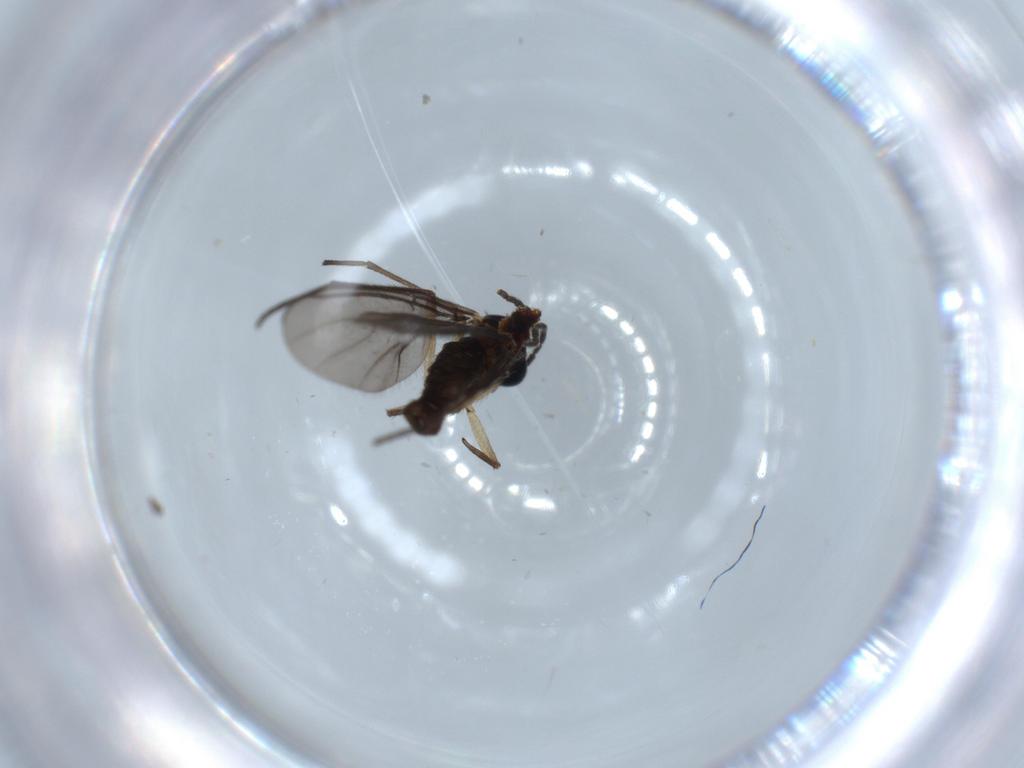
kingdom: Animalia
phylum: Arthropoda
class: Insecta
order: Diptera
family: Sciaridae
